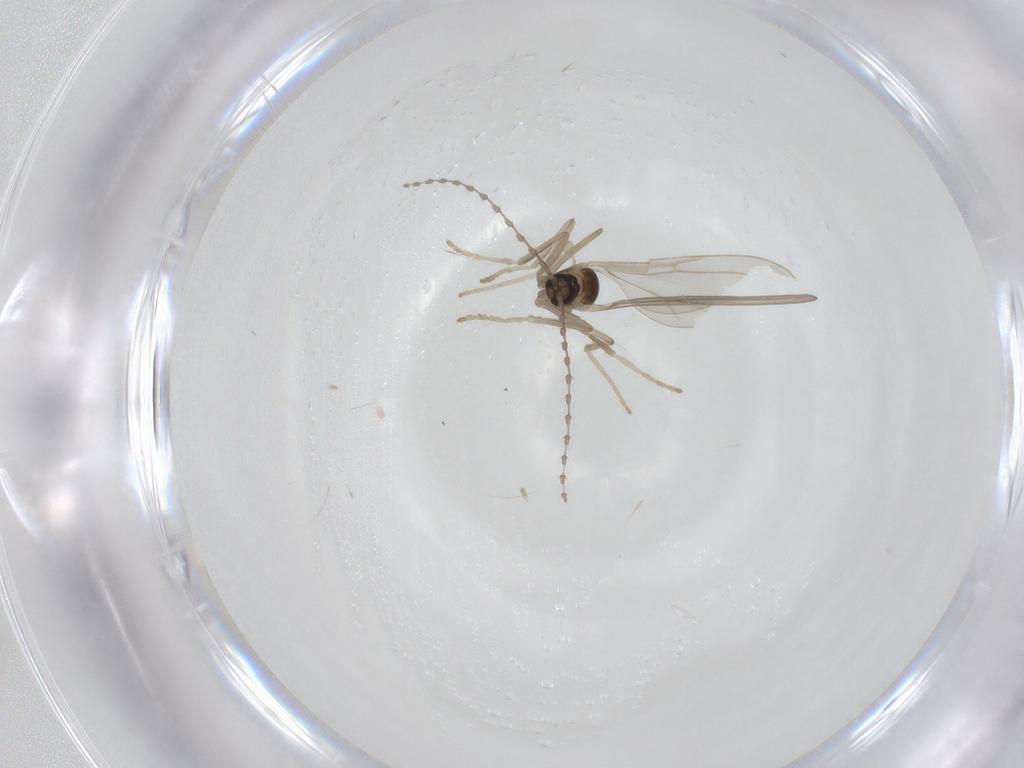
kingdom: Animalia
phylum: Arthropoda
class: Insecta
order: Diptera
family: Cecidomyiidae
